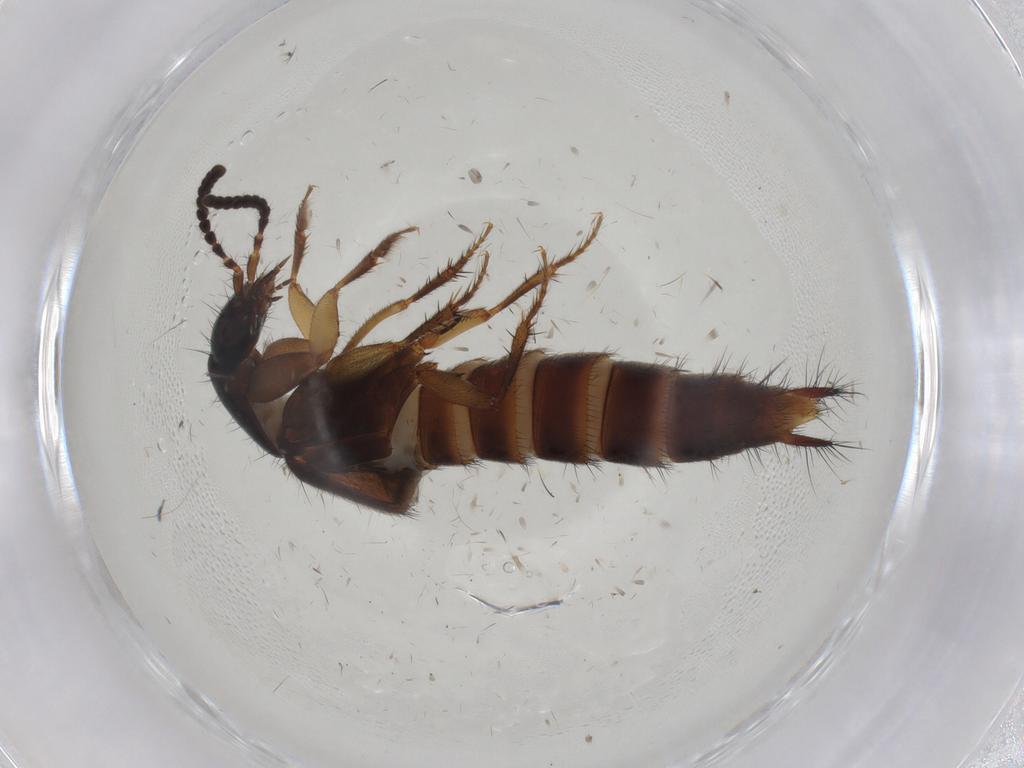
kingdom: Animalia
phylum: Arthropoda
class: Insecta
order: Coleoptera
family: Staphylinidae
